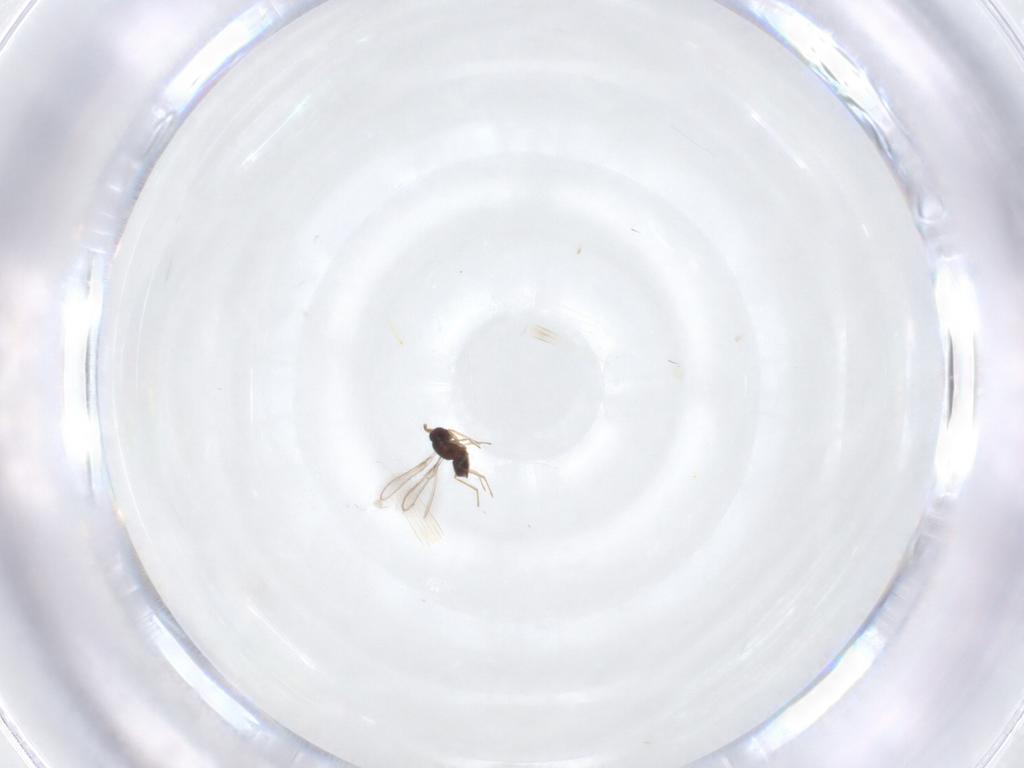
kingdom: Animalia
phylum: Arthropoda
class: Insecta
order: Hymenoptera
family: Mymaridae
